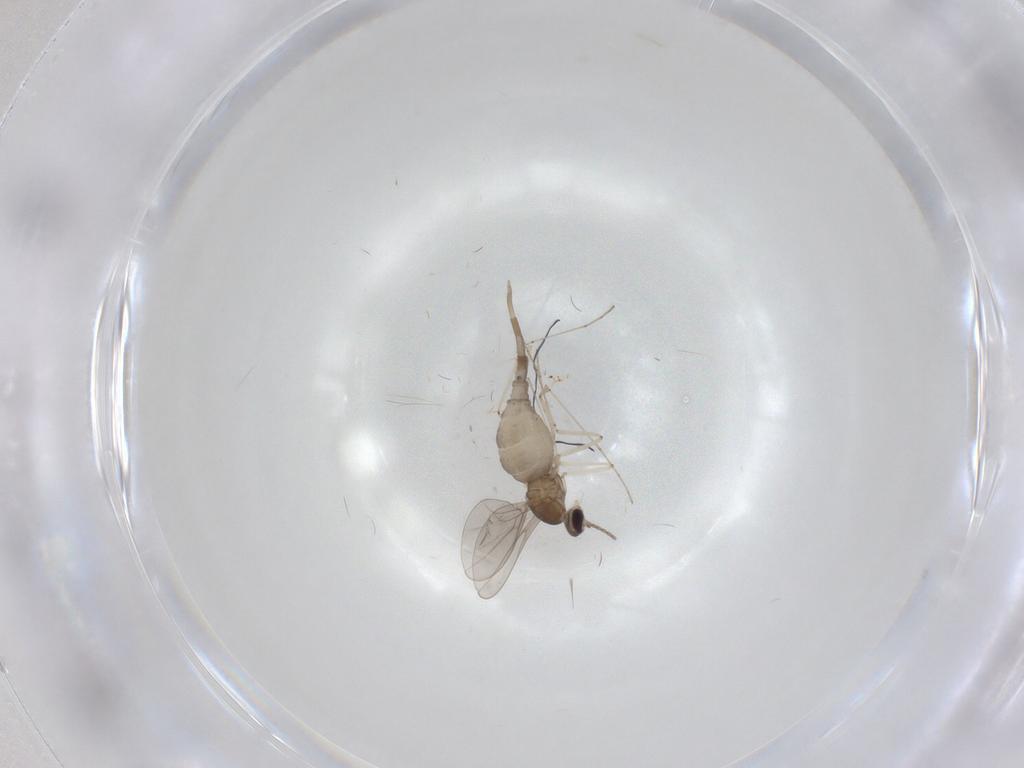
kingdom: Animalia
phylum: Arthropoda
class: Insecta
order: Diptera
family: Cecidomyiidae
